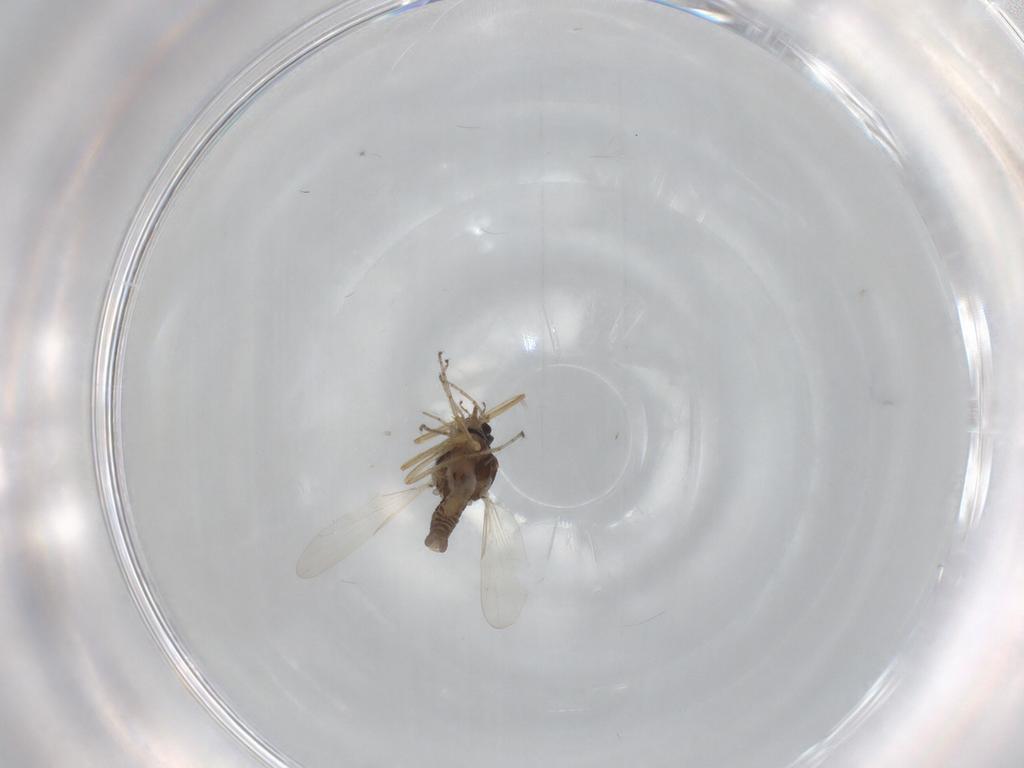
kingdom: Animalia
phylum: Arthropoda
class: Insecta
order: Diptera
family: Ceratopogonidae
